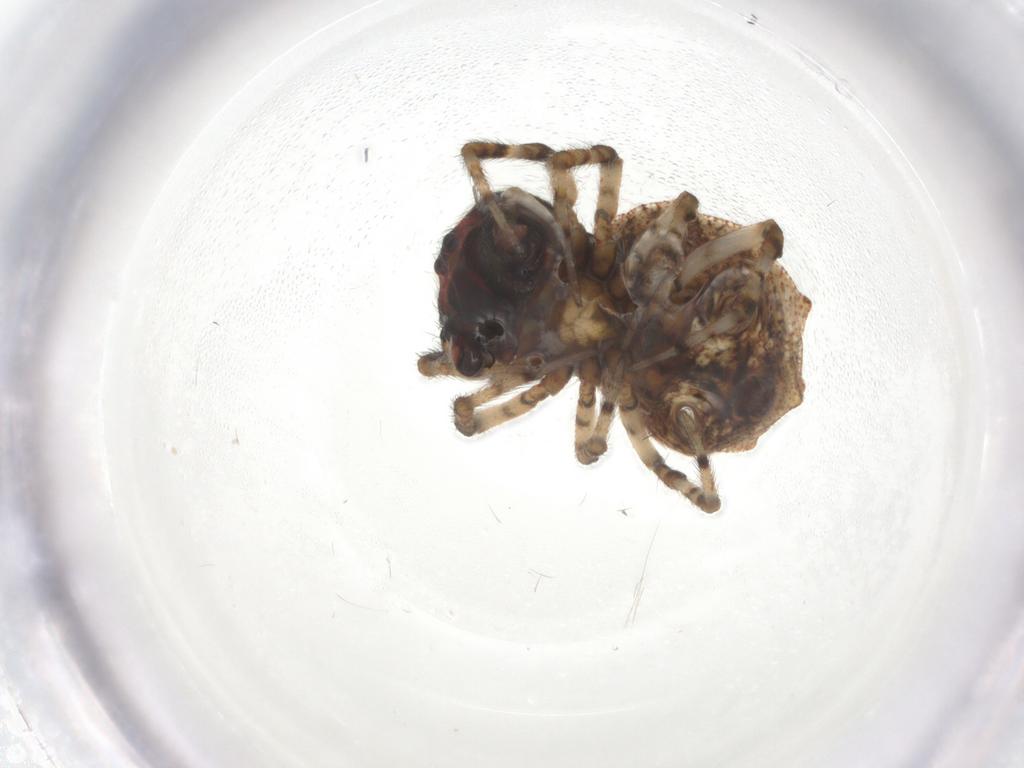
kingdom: Animalia
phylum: Arthropoda
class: Arachnida
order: Araneae
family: Araneidae
